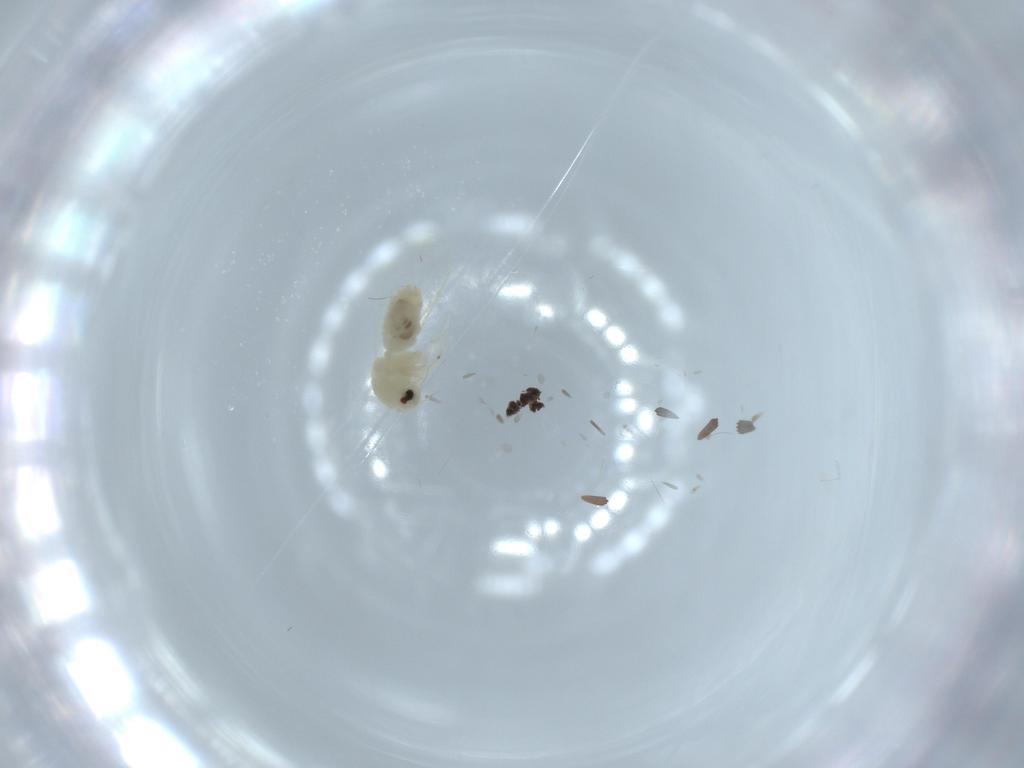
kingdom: Animalia
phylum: Arthropoda
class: Insecta
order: Hemiptera
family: Aleyrodidae
